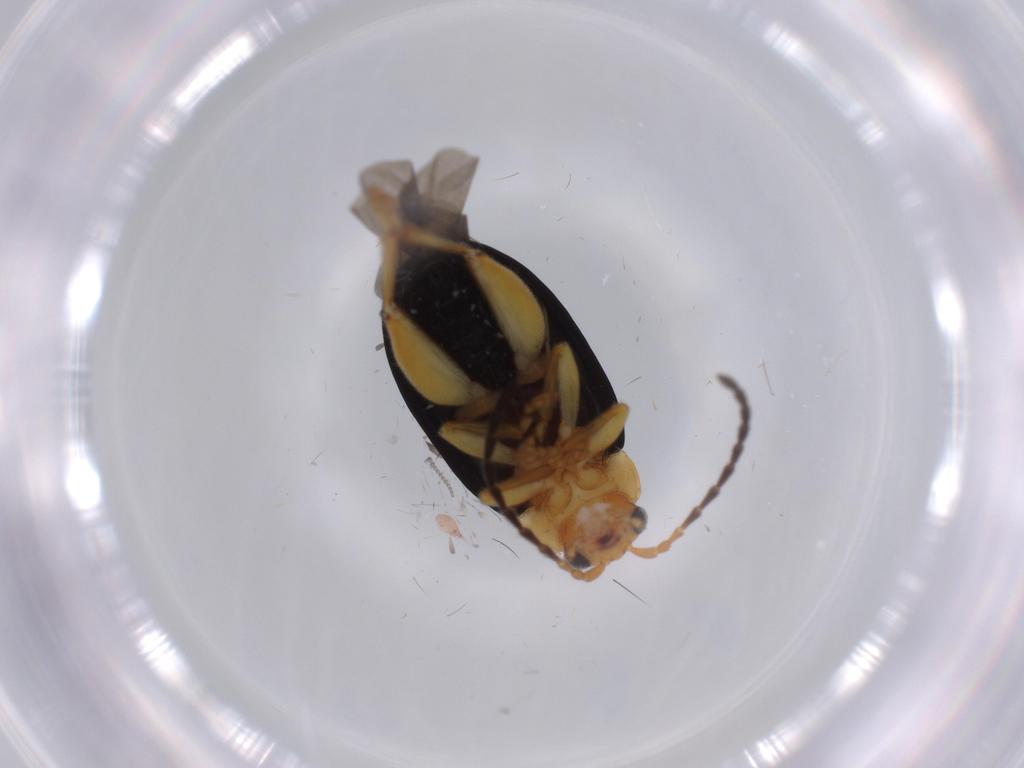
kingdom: Animalia
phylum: Arthropoda
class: Insecta
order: Coleoptera
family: Chrysomelidae
